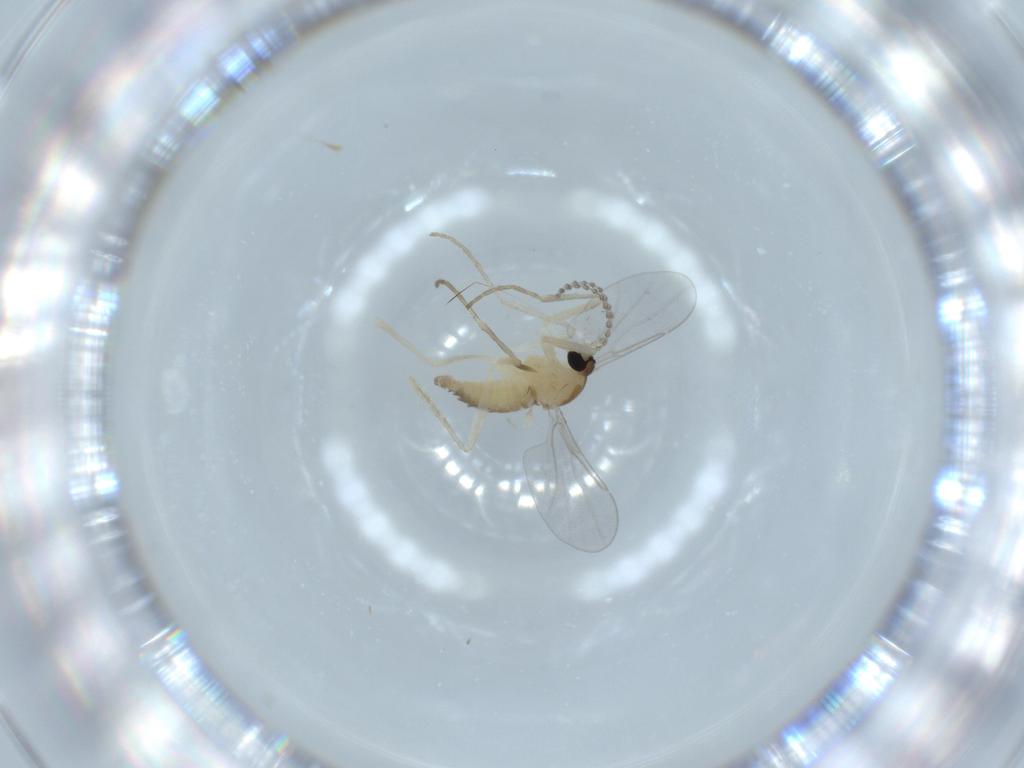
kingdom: Animalia
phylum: Arthropoda
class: Insecta
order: Diptera
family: Cecidomyiidae
